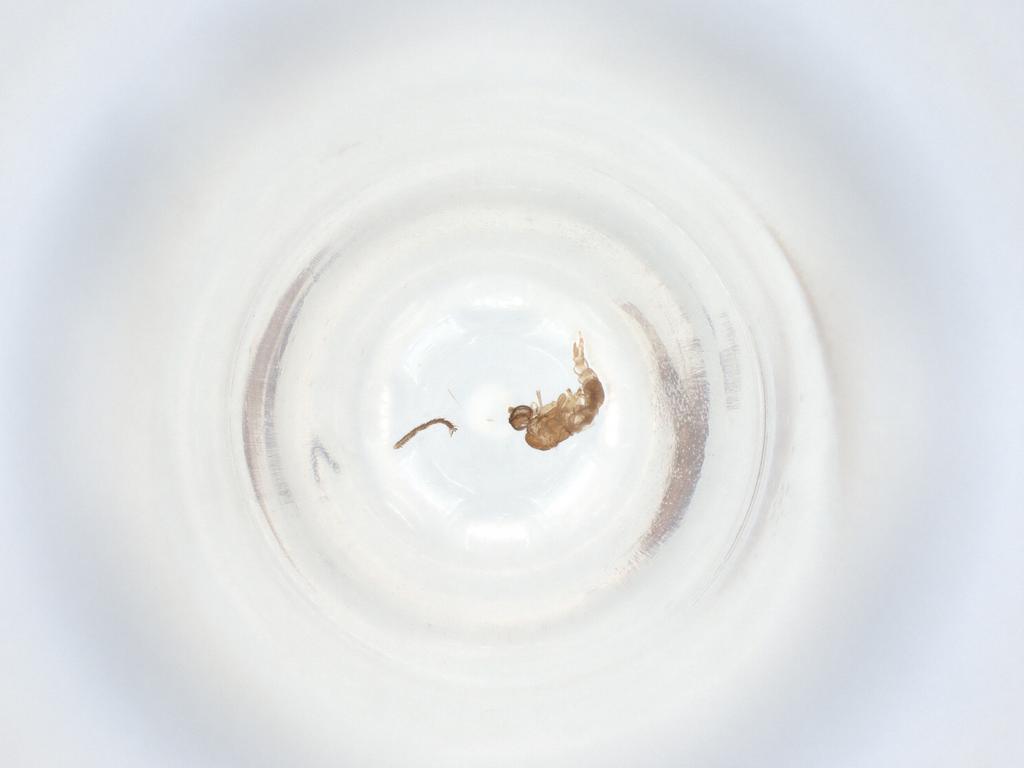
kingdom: Animalia
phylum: Arthropoda
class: Insecta
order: Diptera
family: Sciaridae
